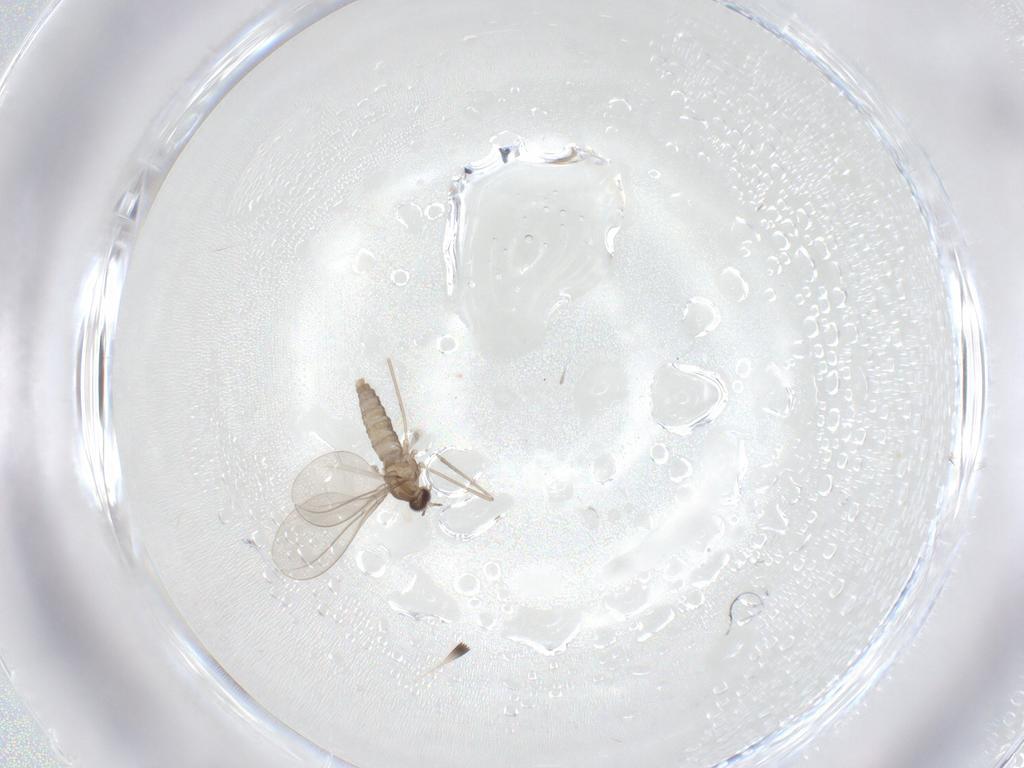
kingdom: Animalia
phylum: Arthropoda
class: Insecta
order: Diptera
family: Cecidomyiidae
